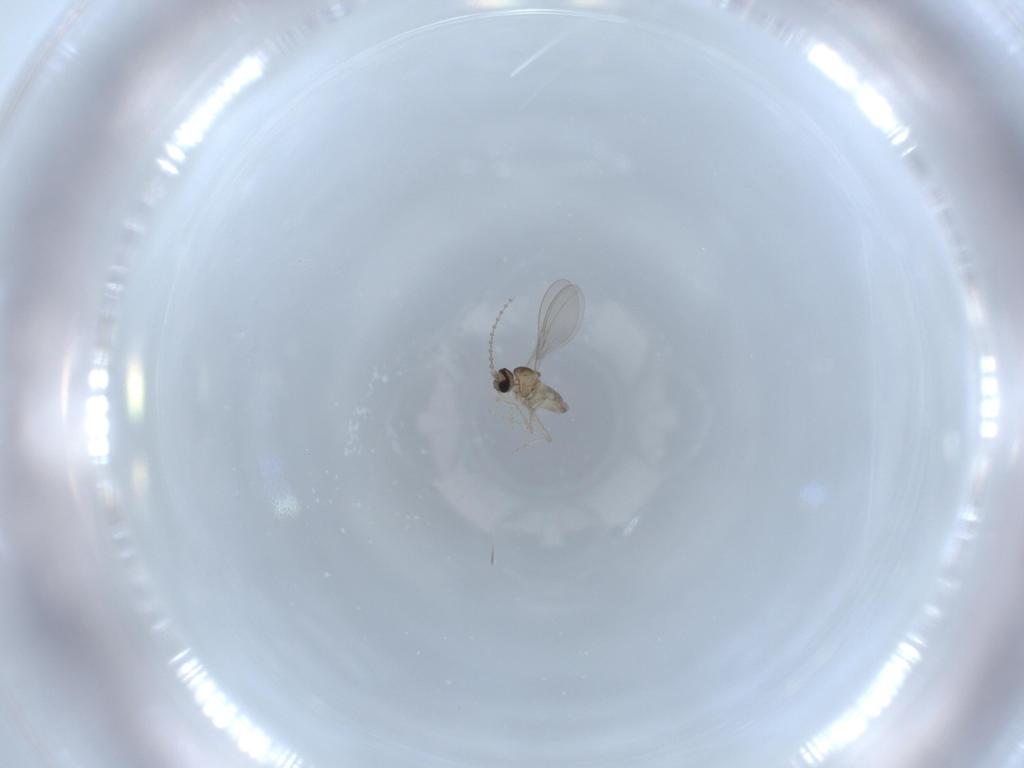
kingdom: Animalia
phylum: Arthropoda
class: Insecta
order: Diptera
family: Cecidomyiidae
